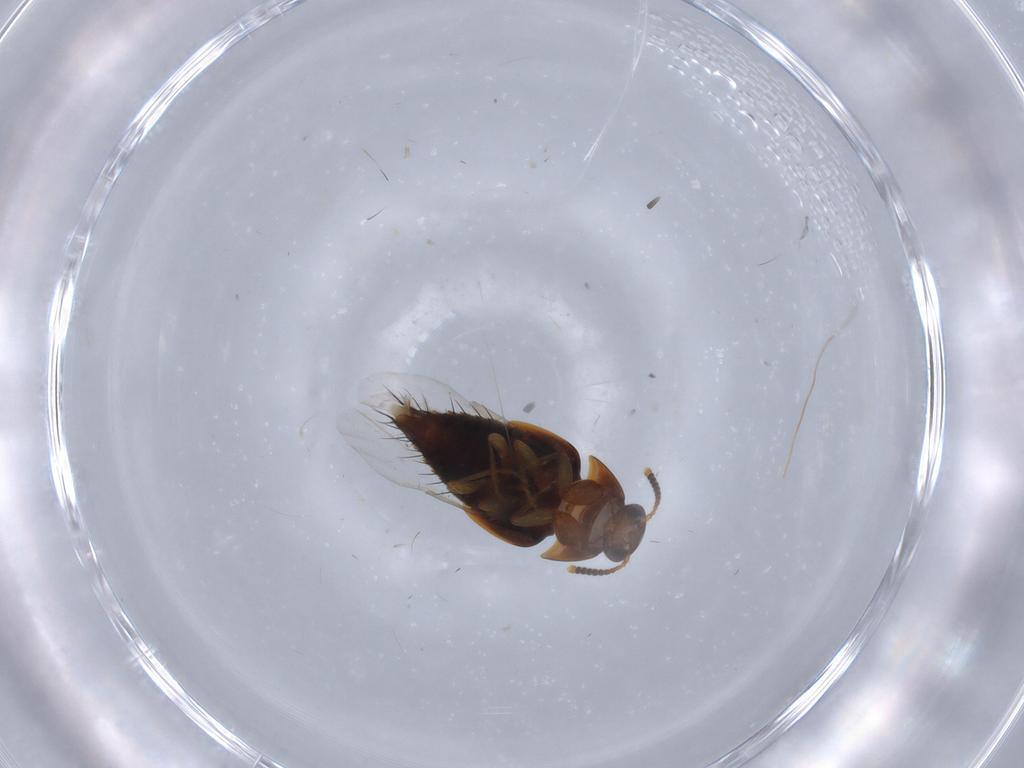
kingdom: Animalia
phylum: Arthropoda
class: Insecta
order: Coleoptera
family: Staphylinidae
